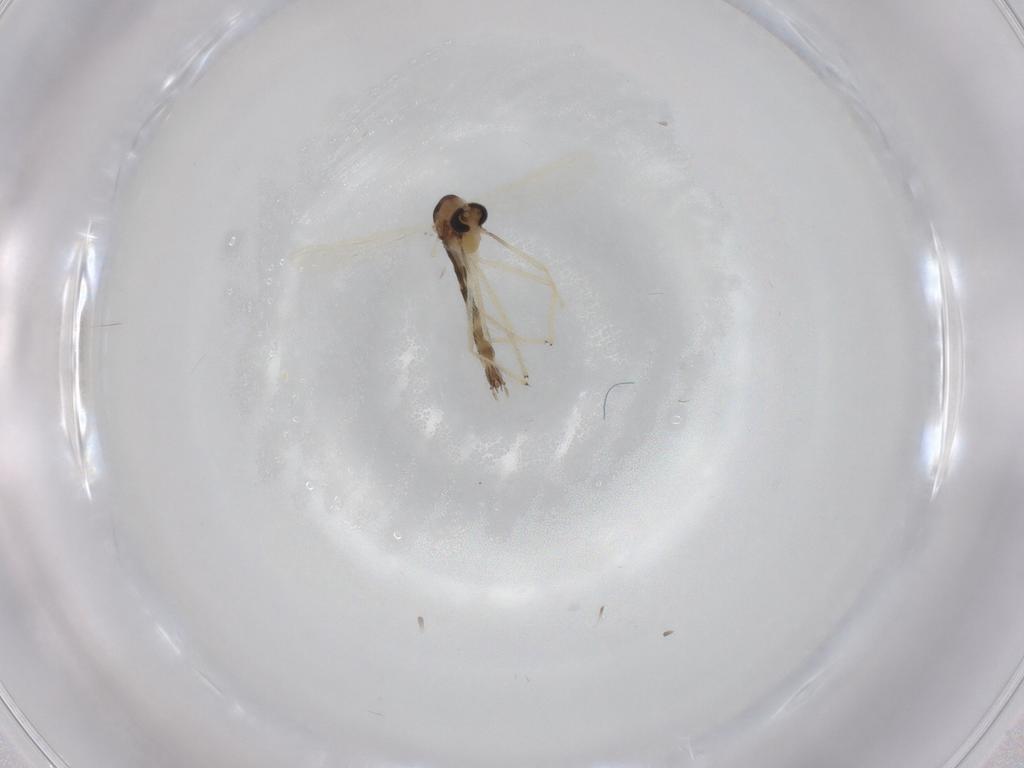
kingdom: Animalia
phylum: Arthropoda
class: Insecta
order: Diptera
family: Chironomidae
